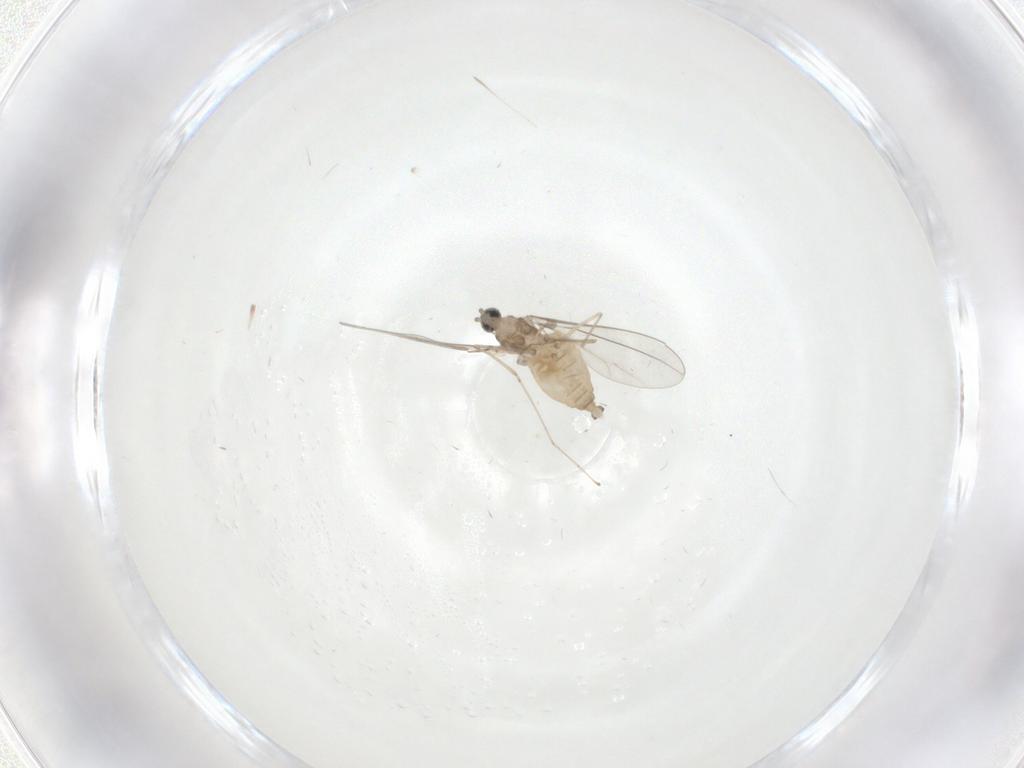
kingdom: Animalia
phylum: Arthropoda
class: Insecta
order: Diptera
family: Cecidomyiidae
